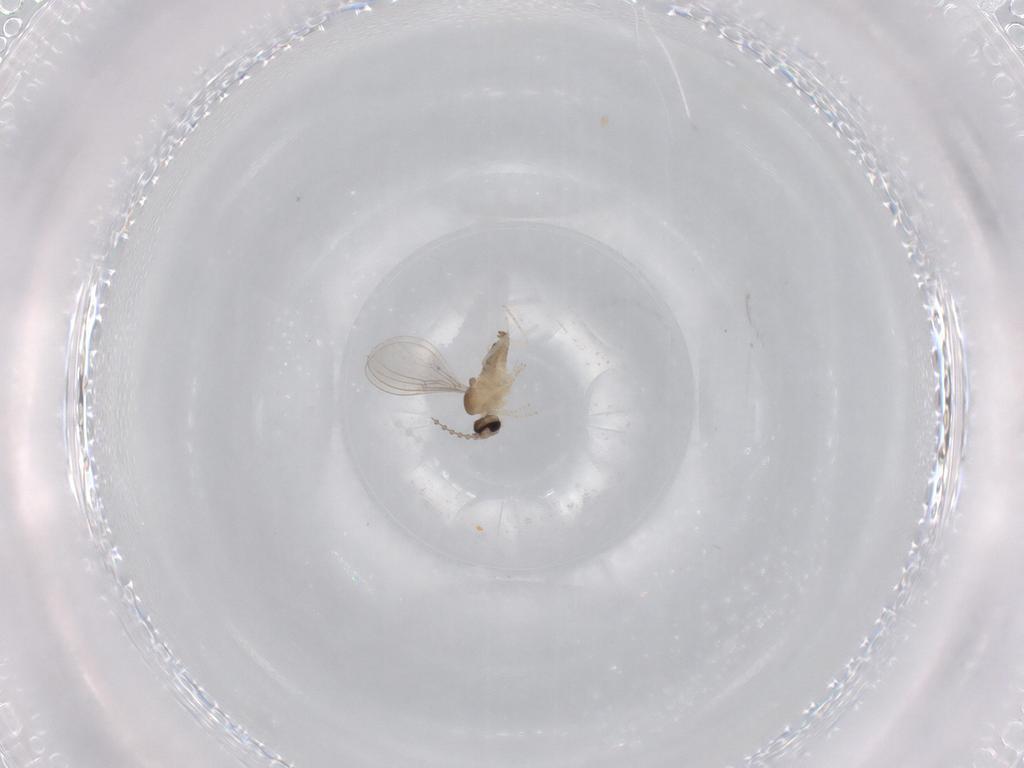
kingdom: Animalia
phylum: Arthropoda
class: Insecta
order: Diptera
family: Cecidomyiidae
